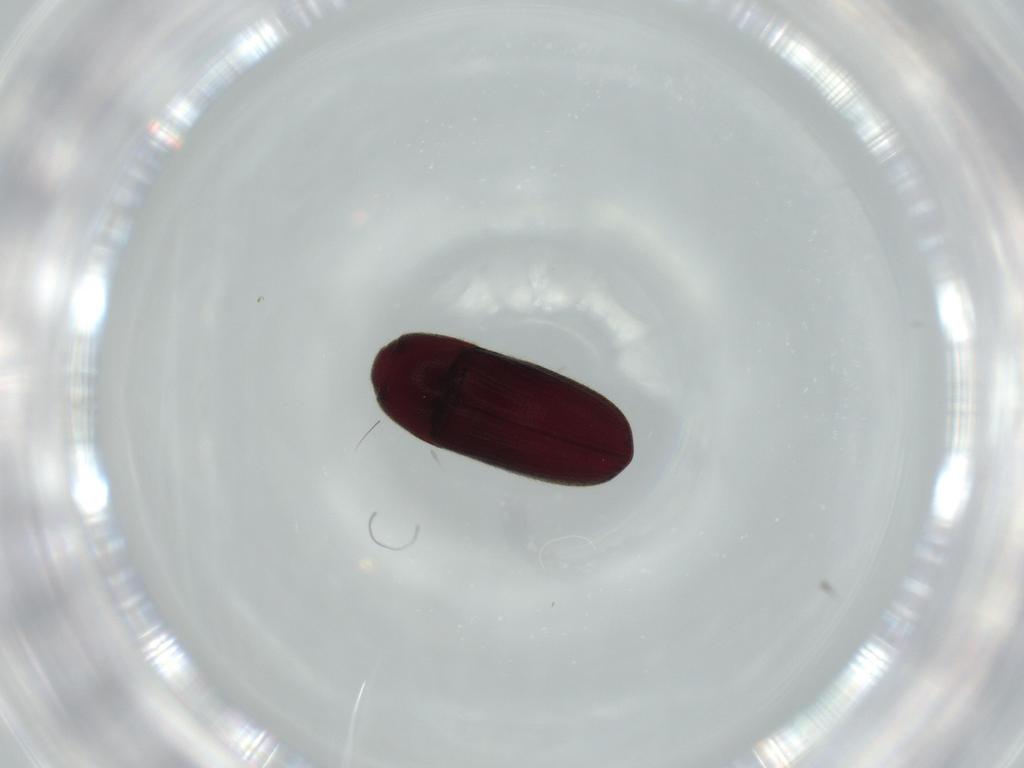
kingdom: Animalia
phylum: Arthropoda
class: Insecta
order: Coleoptera
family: Throscidae
